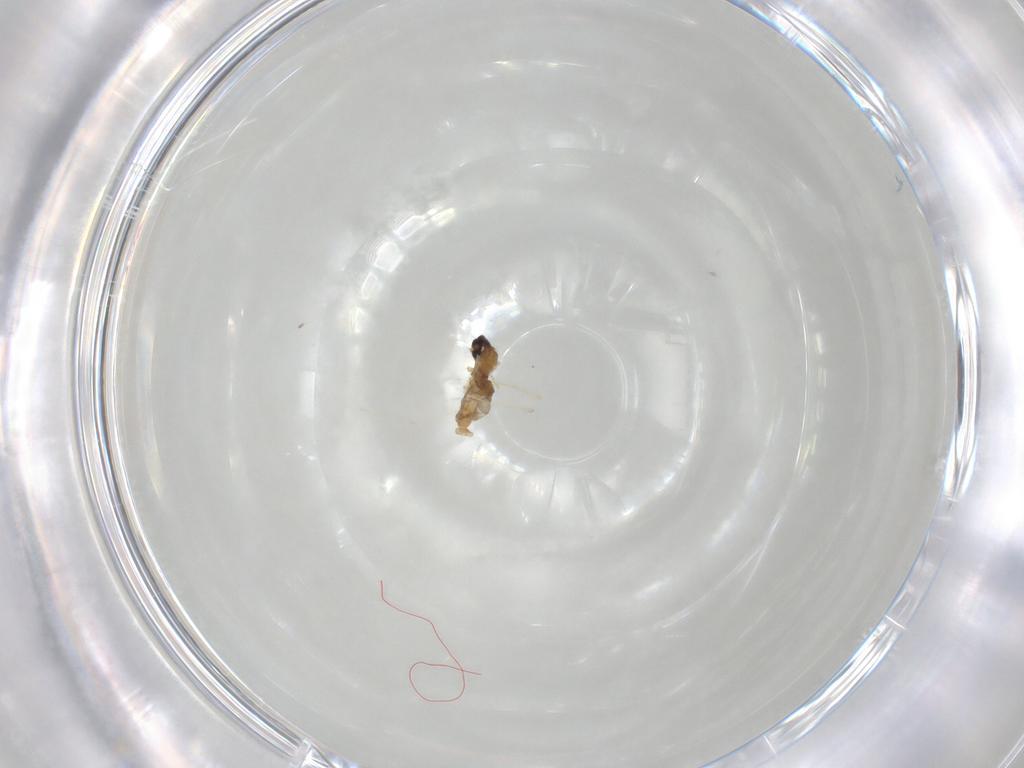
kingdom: Animalia
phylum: Arthropoda
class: Insecta
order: Diptera
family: Cecidomyiidae
